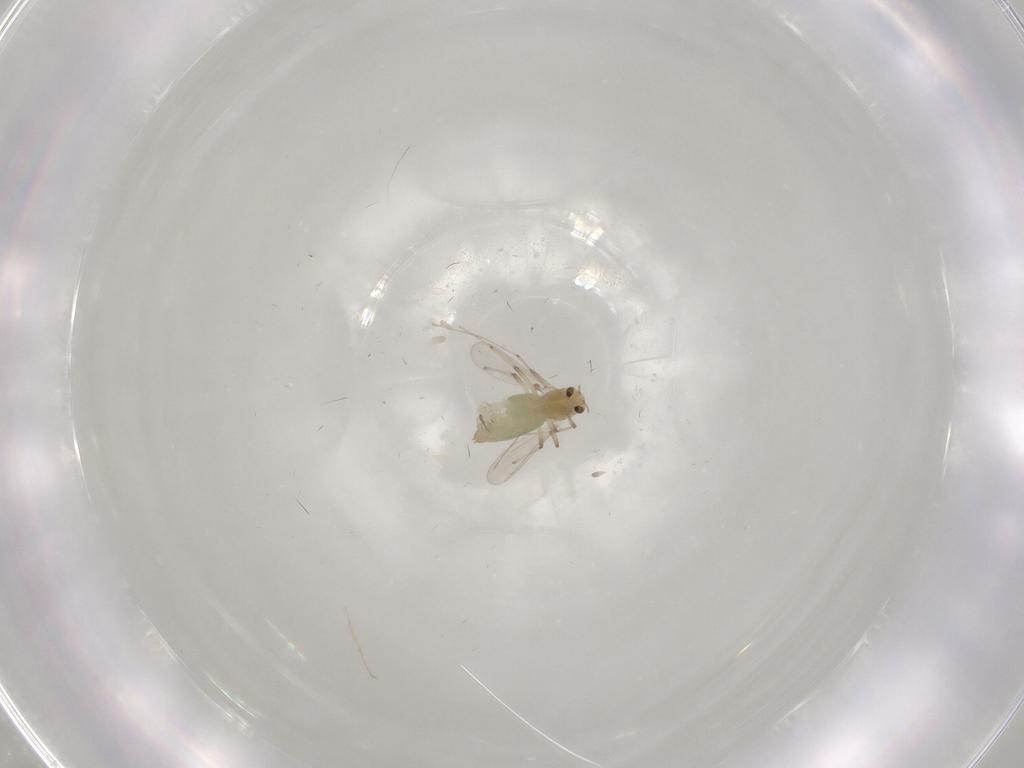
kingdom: Animalia
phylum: Arthropoda
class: Insecta
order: Diptera
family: Chironomidae
